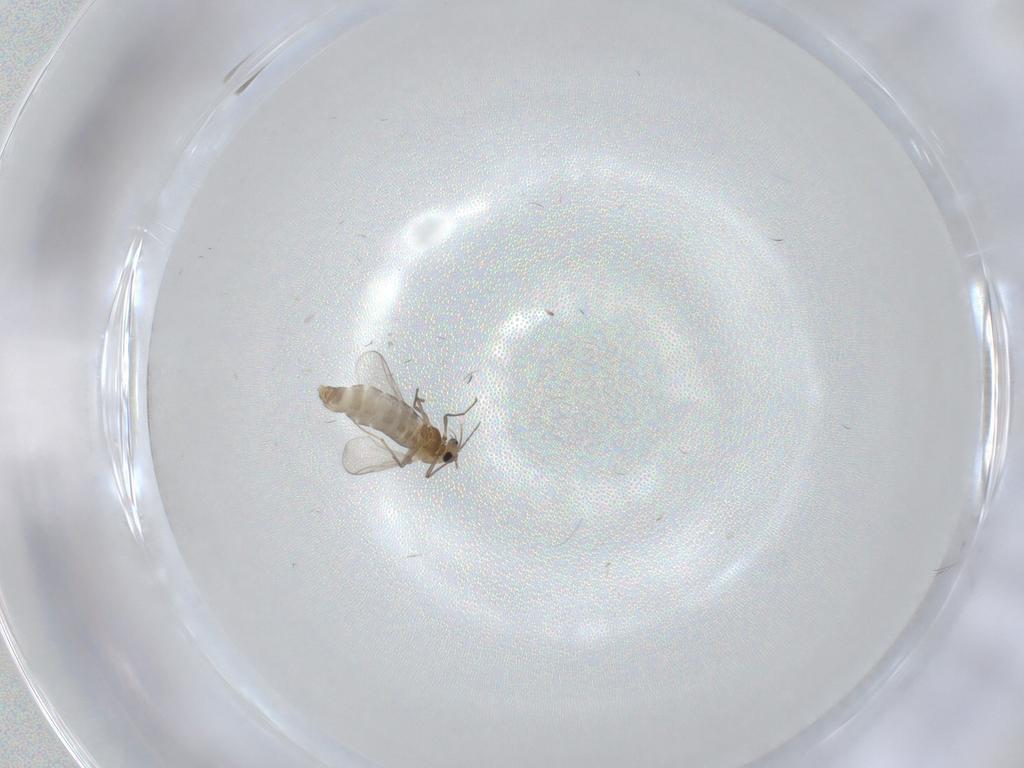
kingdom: Animalia
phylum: Arthropoda
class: Insecta
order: Diptera
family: Chironomidae
